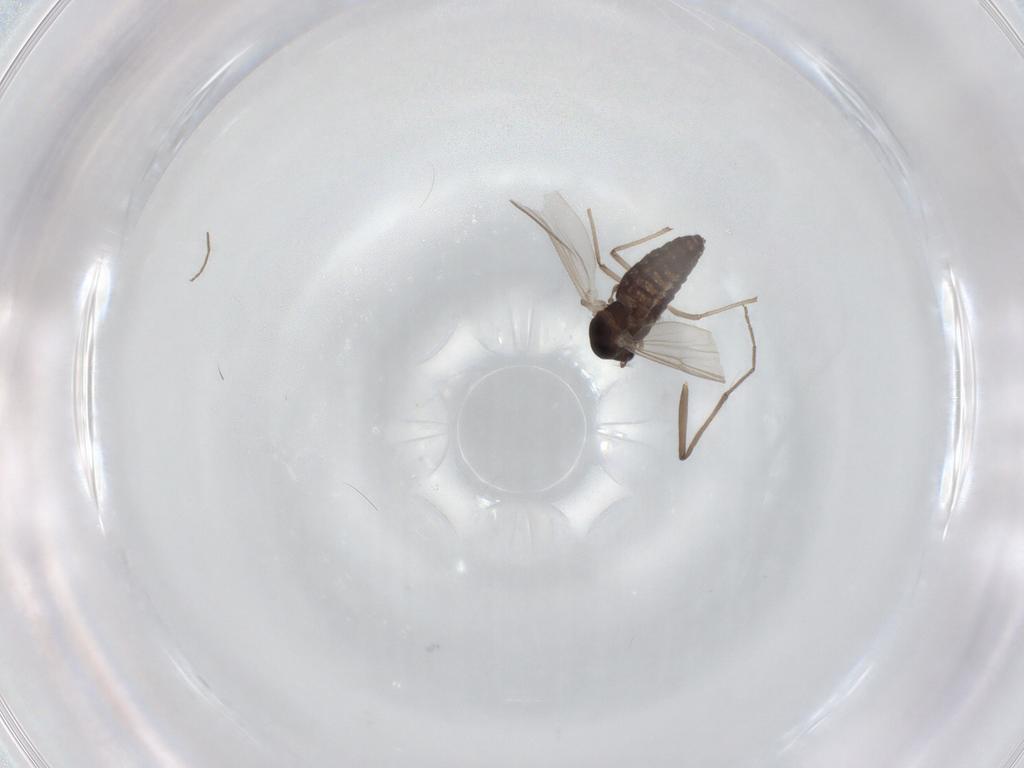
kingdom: Animalia
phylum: Arthropoda
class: Insecta
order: Diptera
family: Chironomidae
